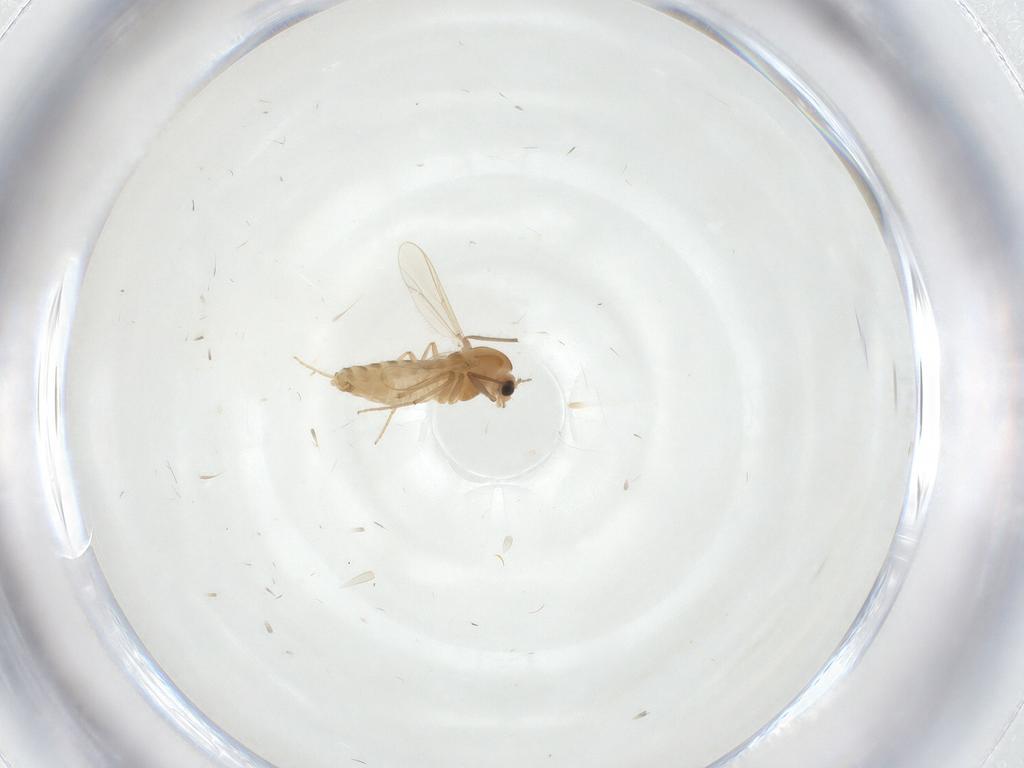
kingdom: Animalia
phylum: Arthropoda
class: Insecta
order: Diptera
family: Chironomidae
